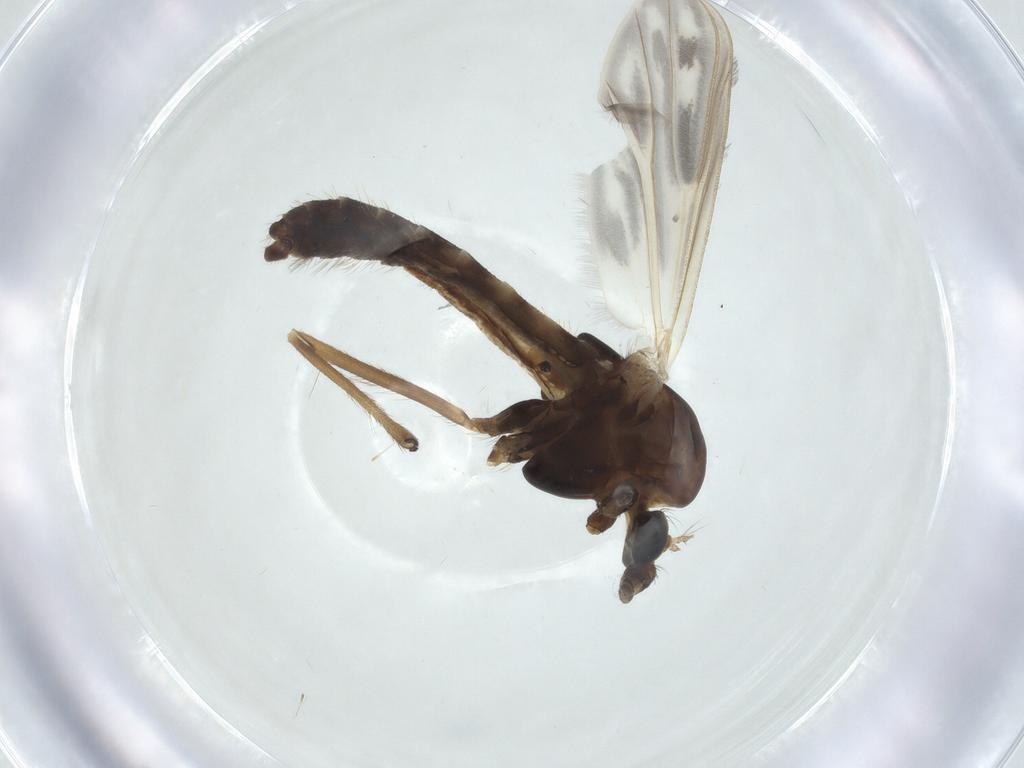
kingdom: Animalia
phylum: Arthropoda
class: Insecta
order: Diptera
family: Chironomidae
